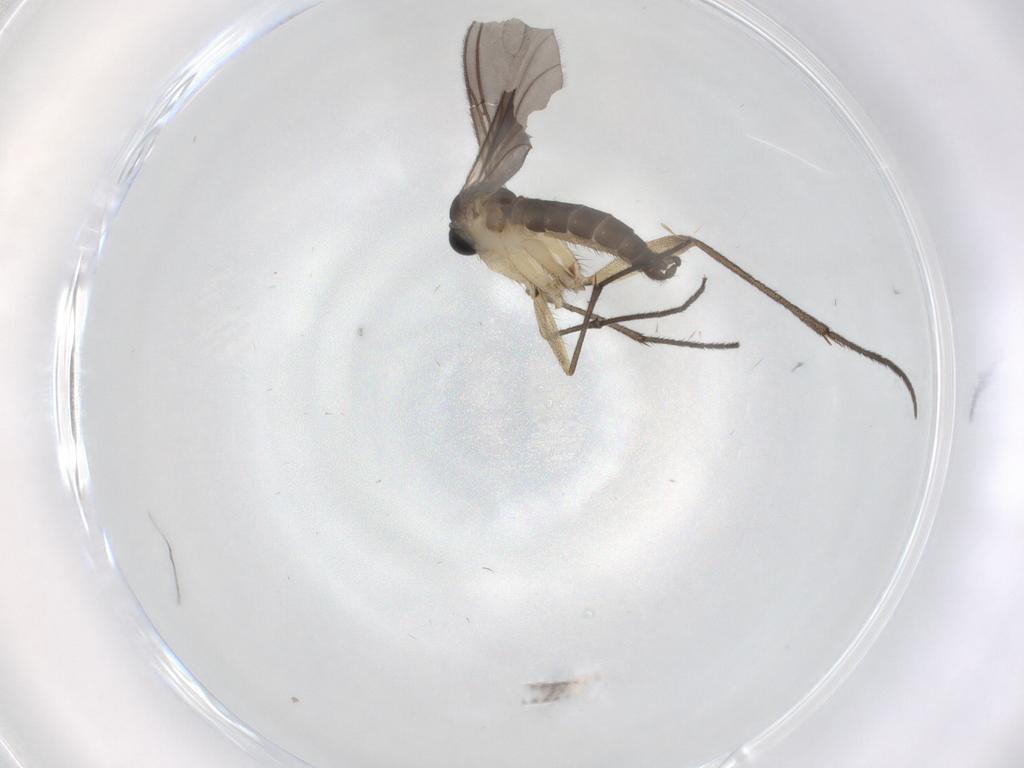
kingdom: Animalia
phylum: Arthropoda
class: Insecta
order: Diptera
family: Sciaridae
